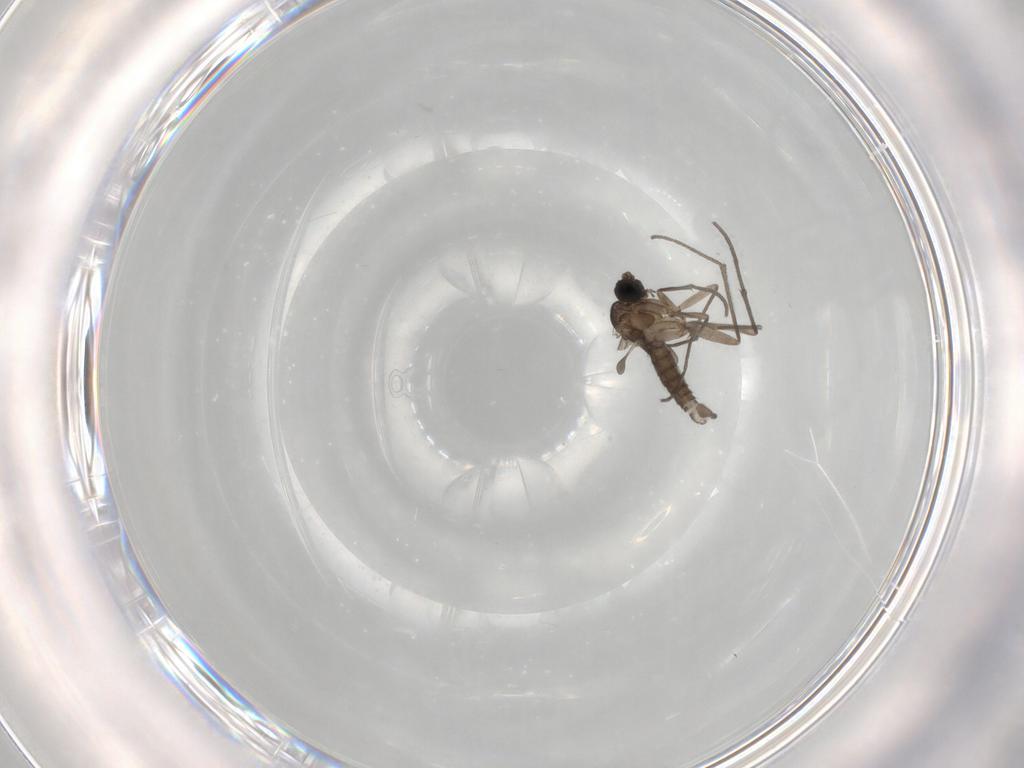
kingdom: Animalia
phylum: Arthropoda
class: Insecta
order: Diptera
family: Sciaridae
